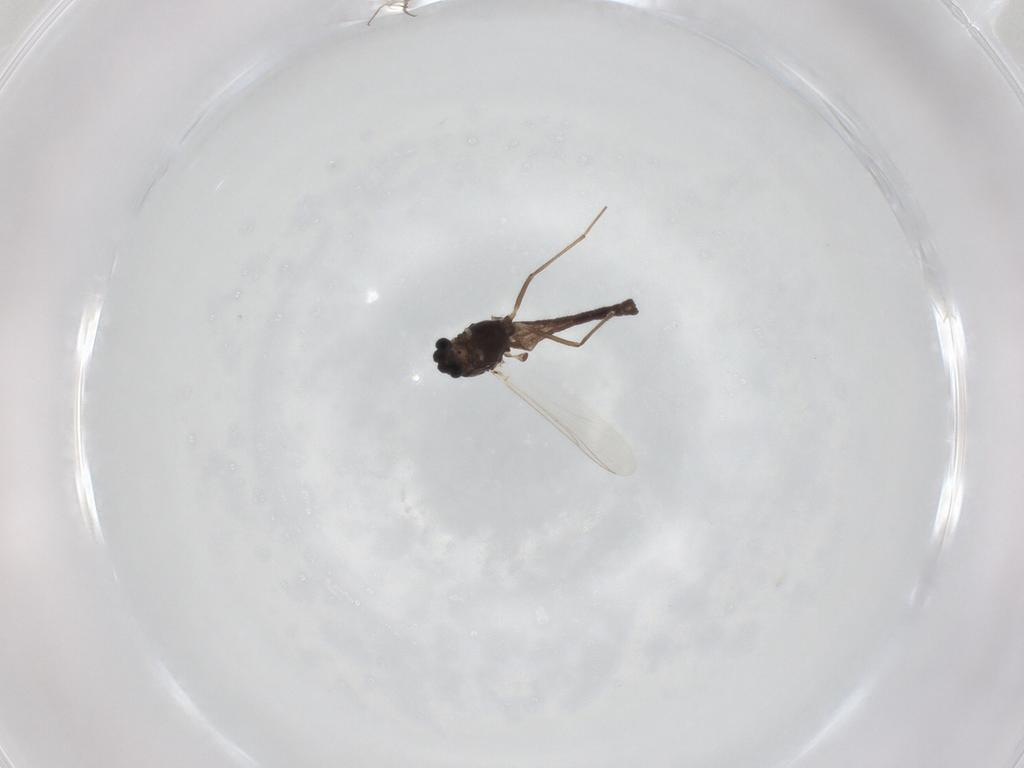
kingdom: Animalia
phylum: Arthropoda
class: Insecta
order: Diptera
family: Chironomidae
